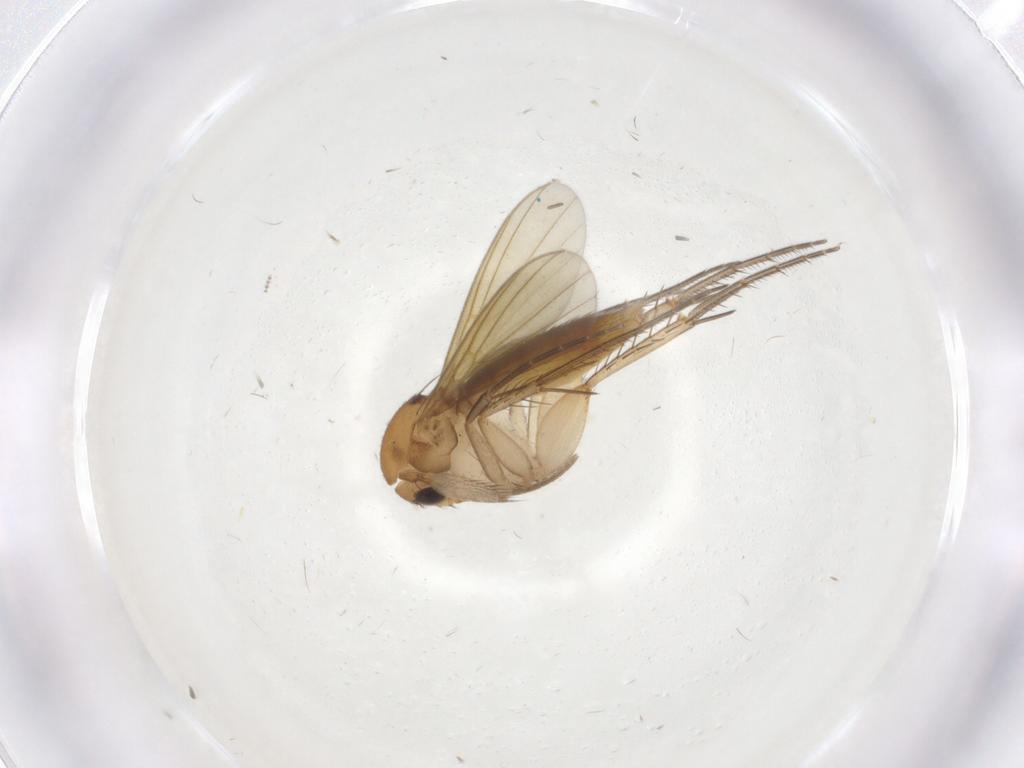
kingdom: Animalia
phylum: Arthropoda
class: Insecta
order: Diptera
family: Mycetophilidae
